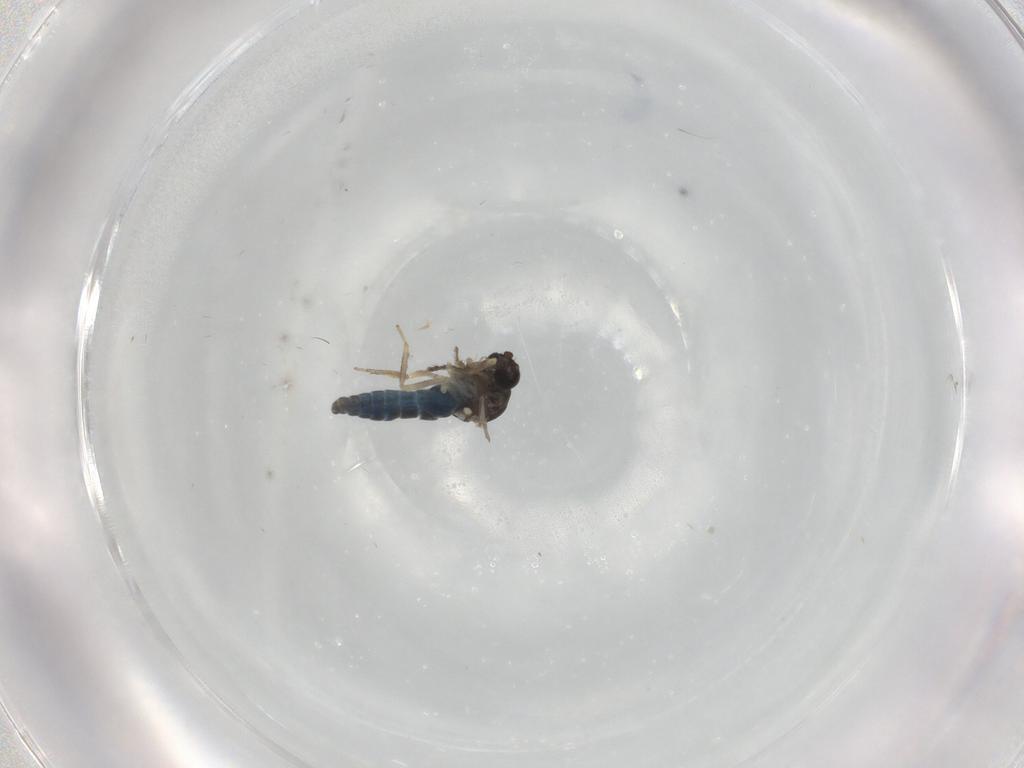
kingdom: Animalia
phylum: Arthropoda
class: Insecta
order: Diptera
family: Ceratopogonidae
